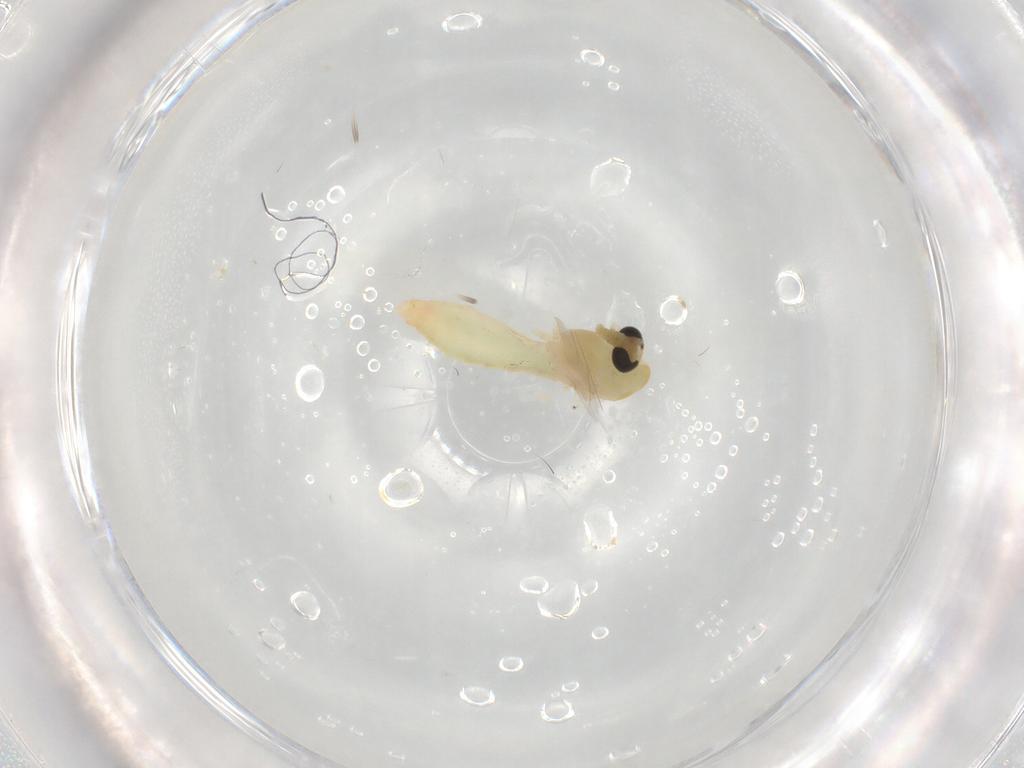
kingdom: Animalia
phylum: Arthropoda
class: Insecta
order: Diptera
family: Chironomidae
